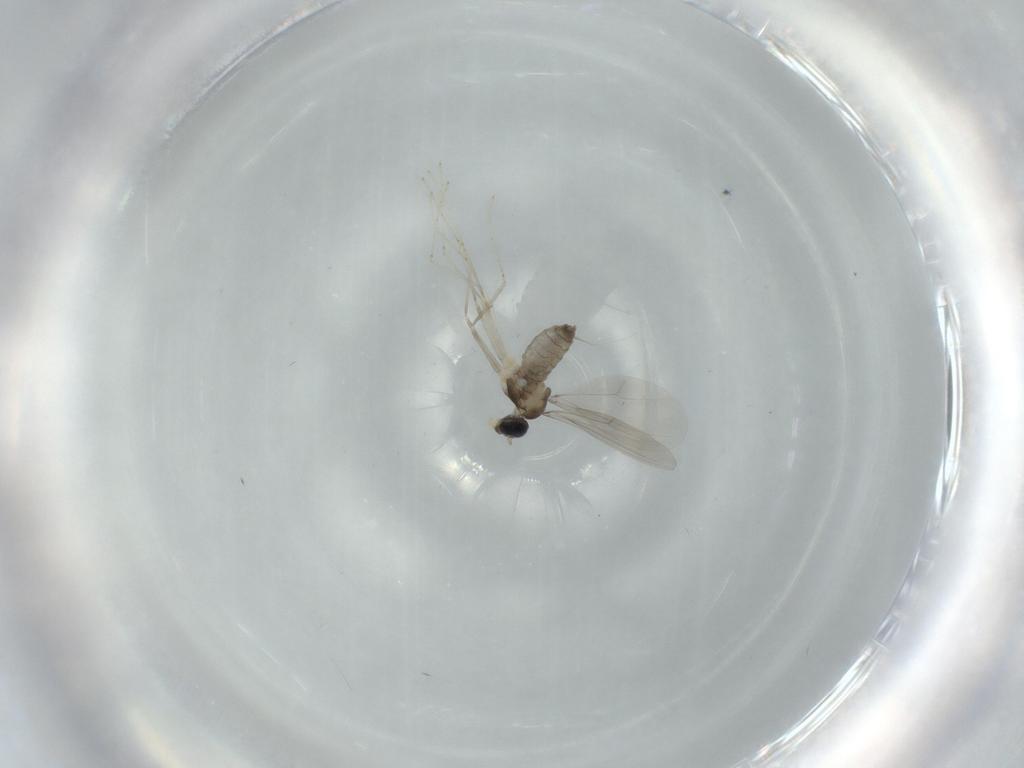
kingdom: Animalia
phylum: Arthropoda
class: Insecta
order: Diptera
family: Cecidomyiidae
